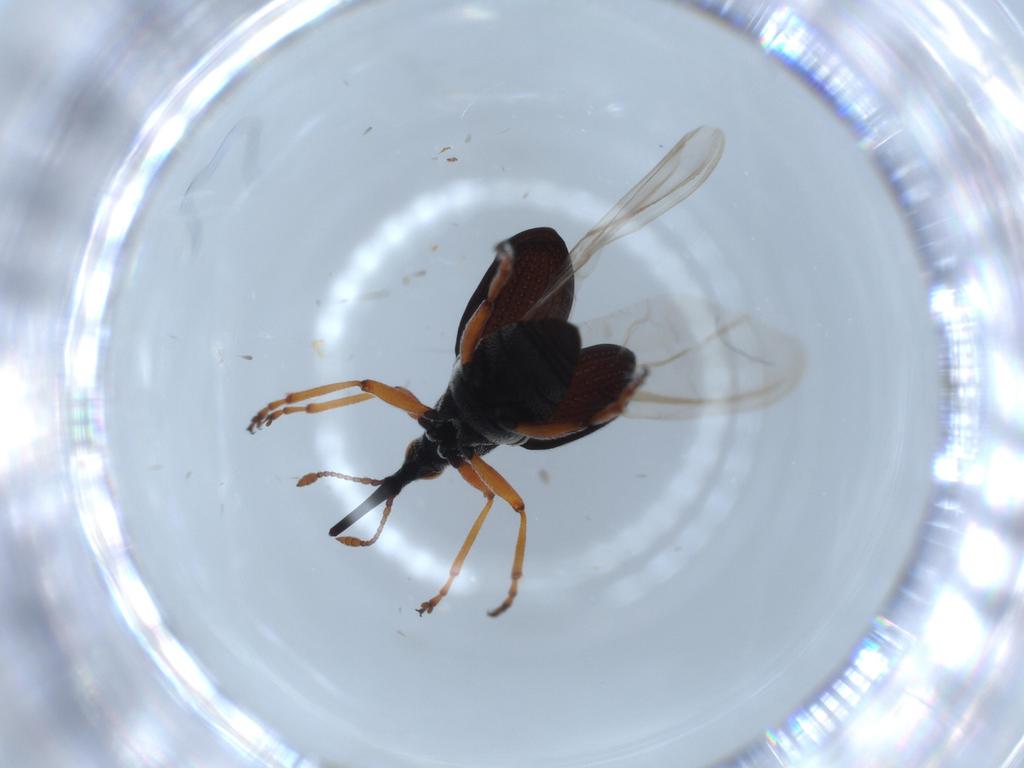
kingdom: Animalia
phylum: Arthropoda
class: Insecta
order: Coleoptera
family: Brentidae
